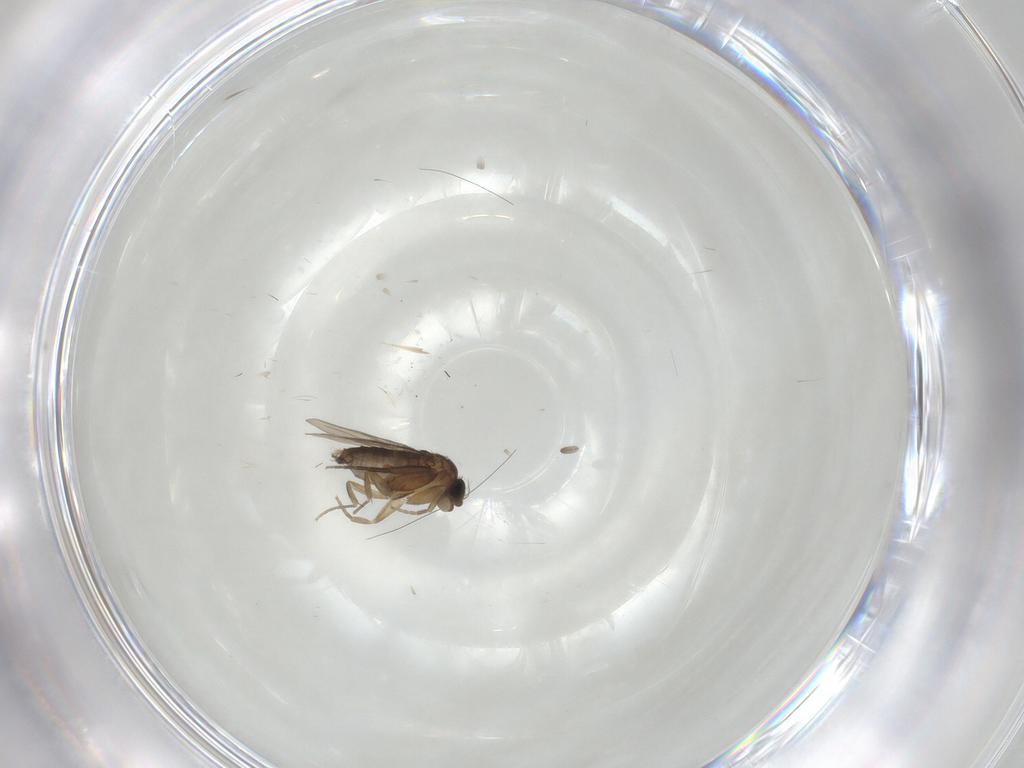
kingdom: Animalia
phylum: Arthropoda
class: Insecta
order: Diptera
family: Phoridae
